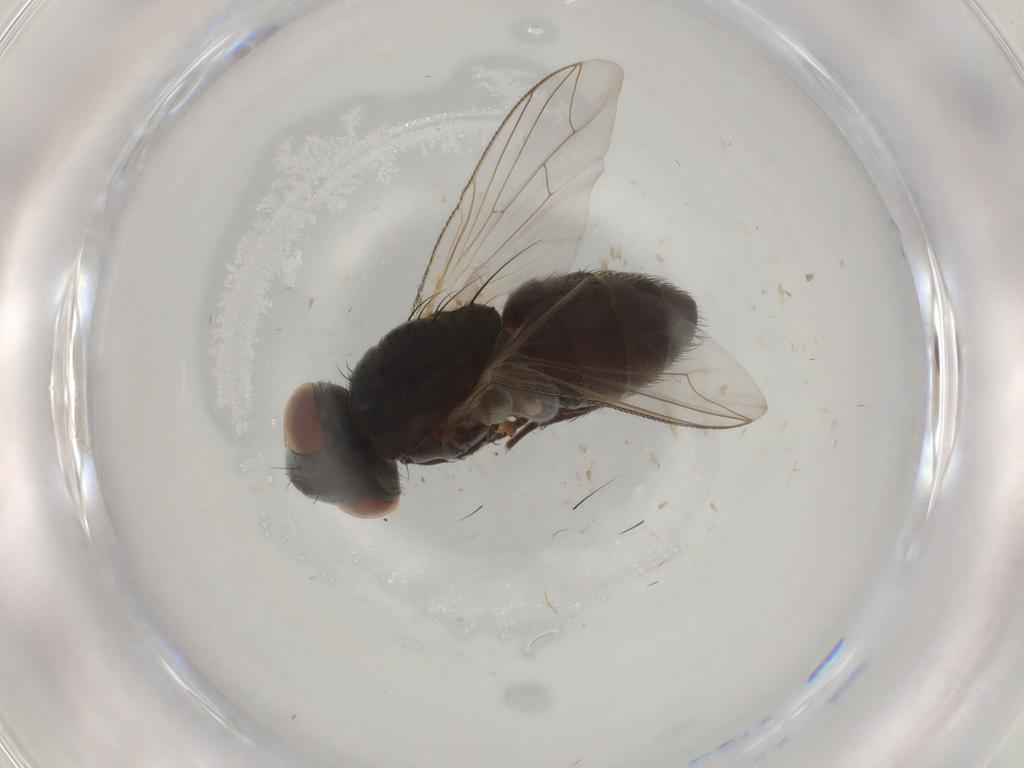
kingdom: Animalia
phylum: Arthropoda
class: Insecta
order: Diptera
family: Sarcophagidae
